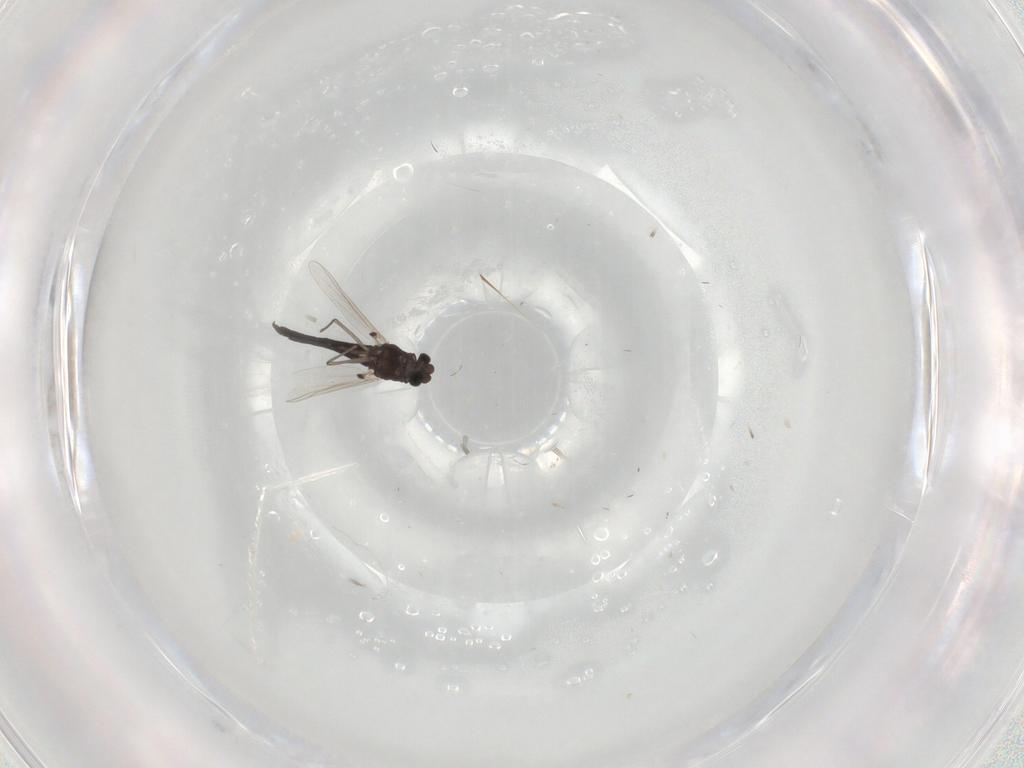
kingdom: Animalia
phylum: Arthropoda
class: Insecta
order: Diptera
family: Chironomidae
